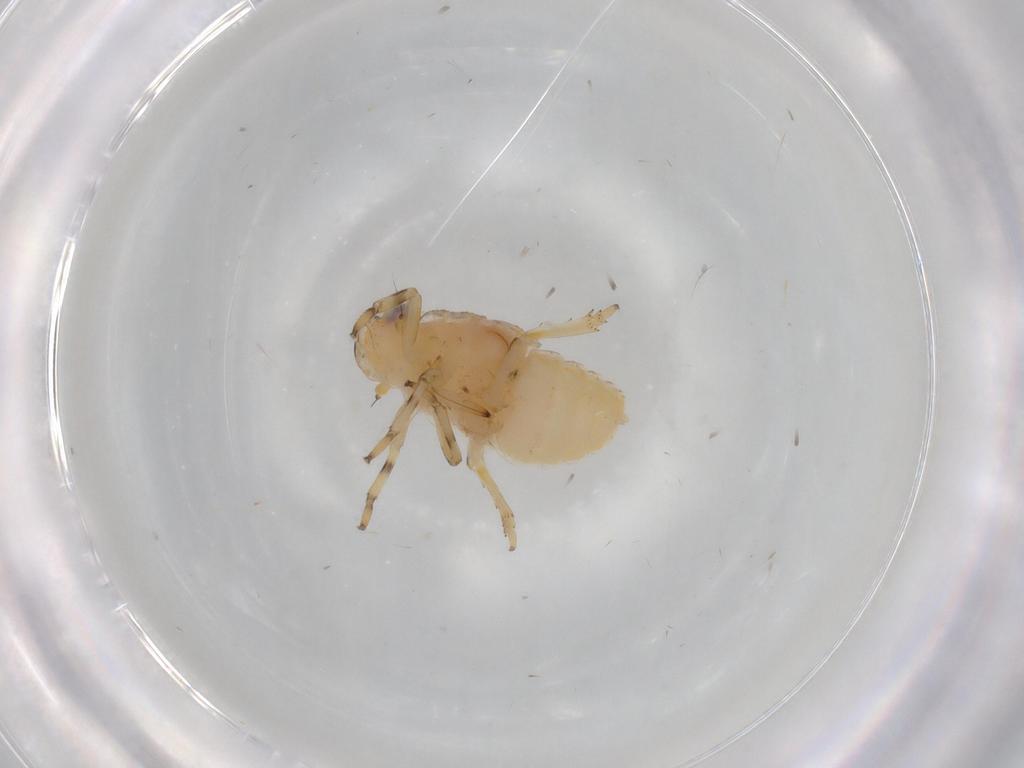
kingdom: Animalia
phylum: Arthropoda
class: Insecta
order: Hemiptera
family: Issidae
